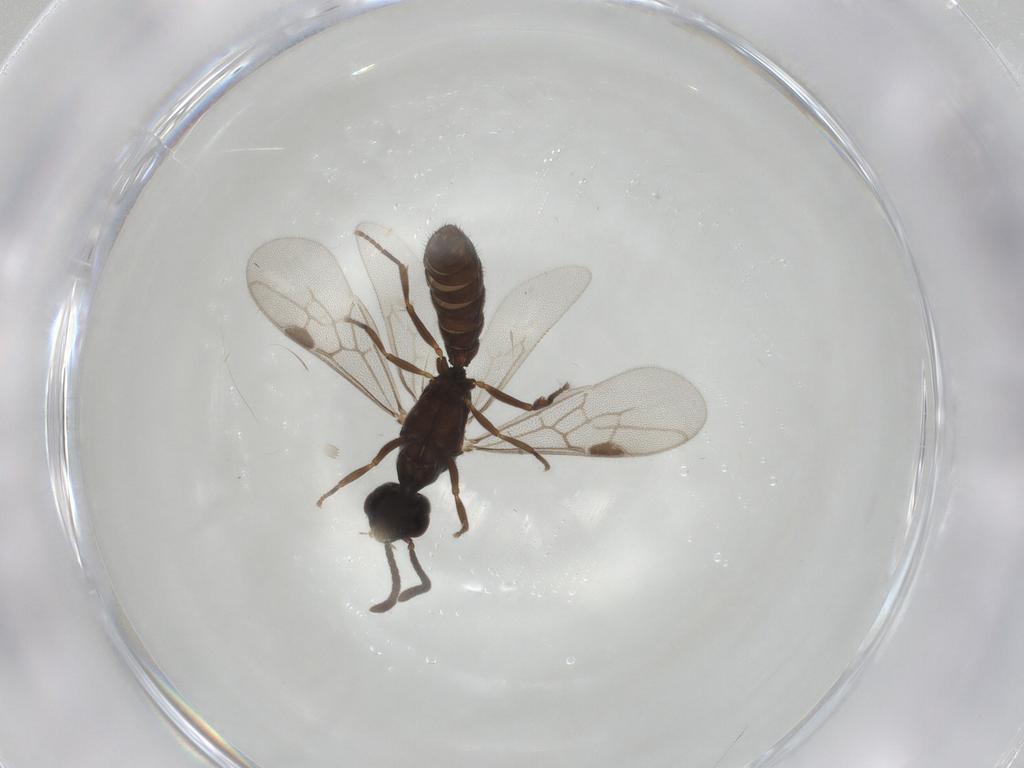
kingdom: Animalia
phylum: Arthropoda
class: Insecta
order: Hymenoptera
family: Formicidae
